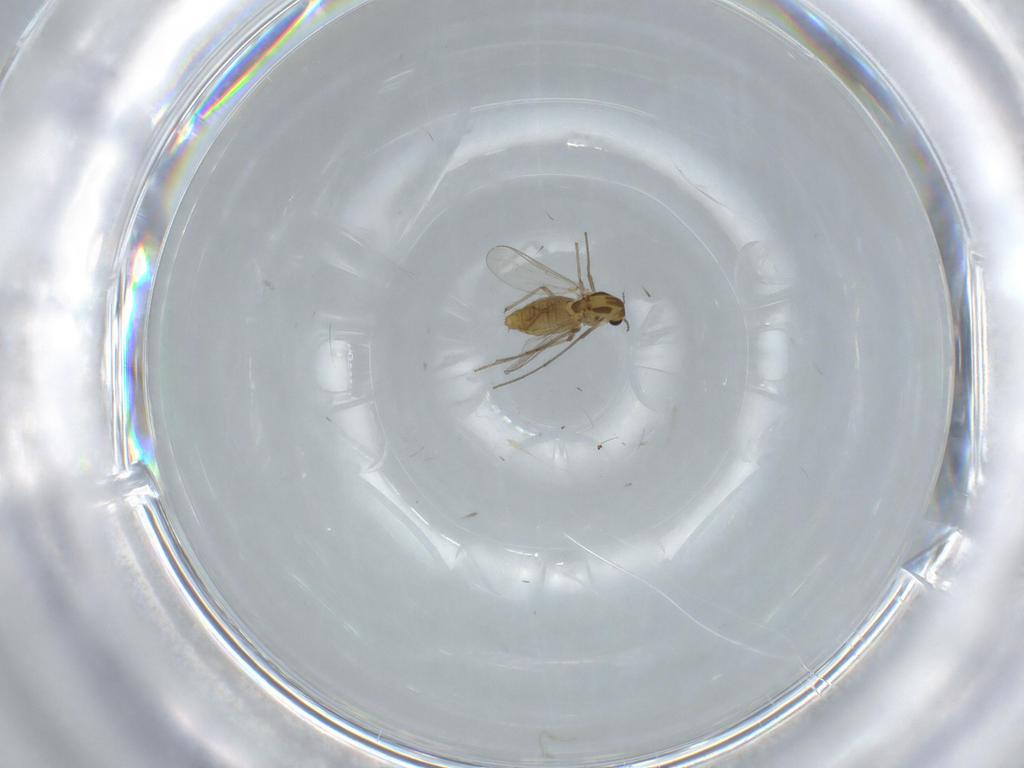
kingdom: Animalia
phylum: Arthropoda
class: Insecta
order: Diptera
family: Chironomidae
